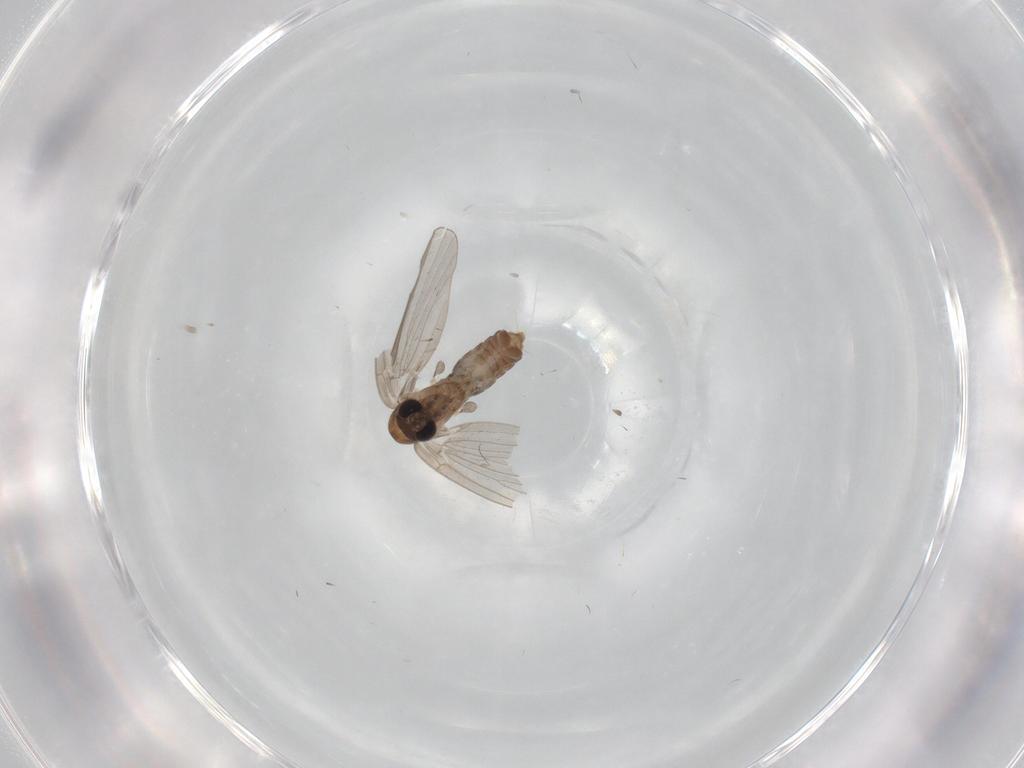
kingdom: Animalia
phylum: Arthropoda
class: Insecta
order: Diptera
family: Sciaridae
